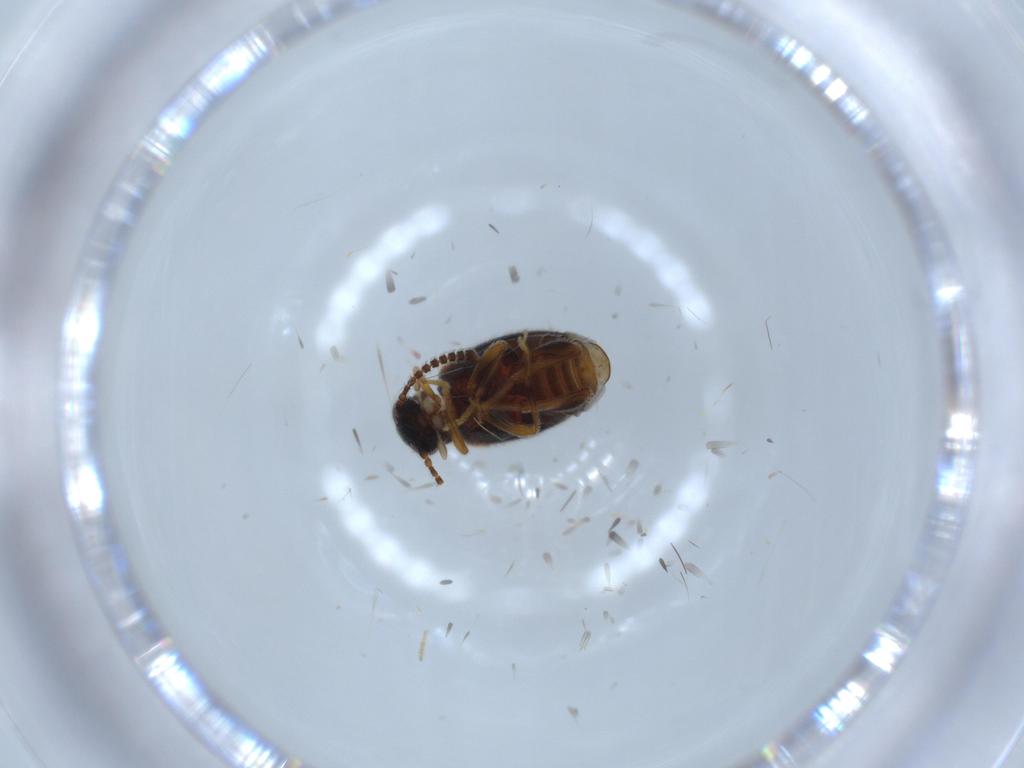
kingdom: Animalia
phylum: Arthropoda
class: Insecta
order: Coleoptera
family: Aderidae
